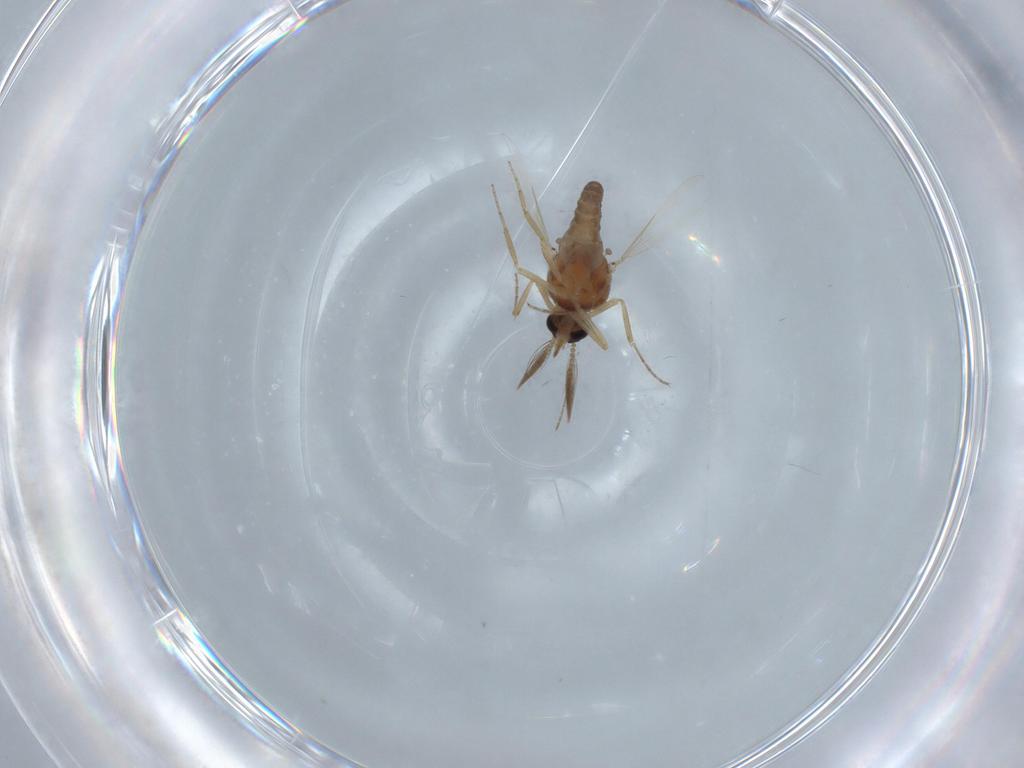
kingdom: Animalia
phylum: Arthropoda
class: Insecta
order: Diptera
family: Ceratopogonidae
